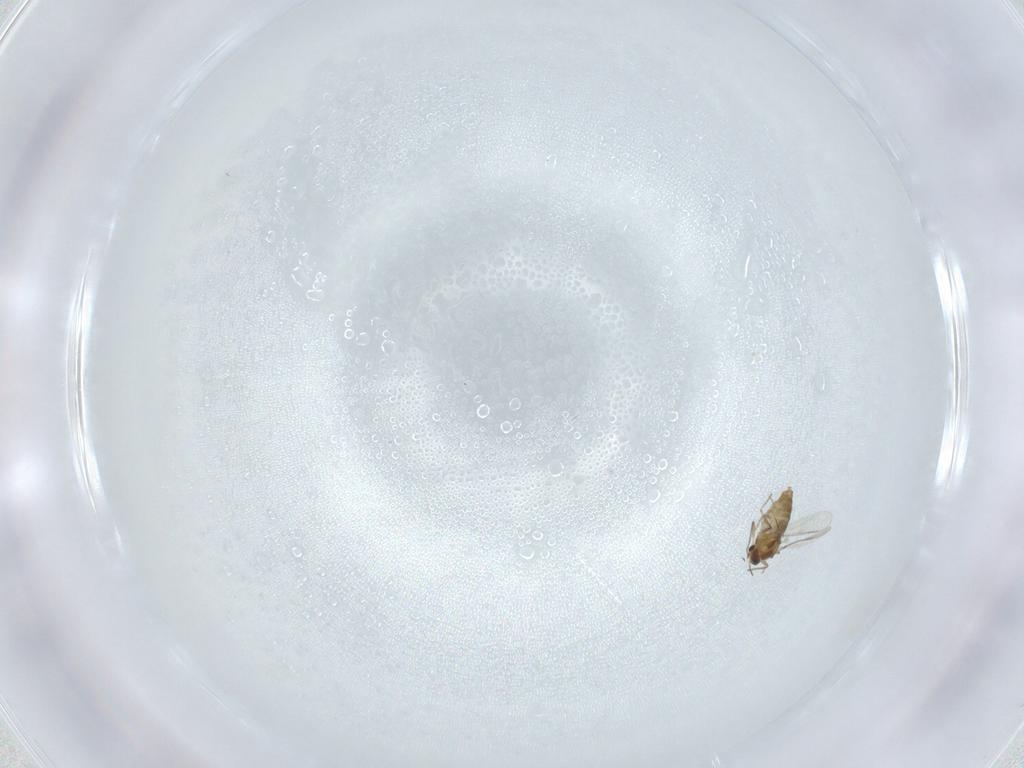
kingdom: Animalia
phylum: Arthropoda
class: Insecta
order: Diptera
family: Chironomidae
